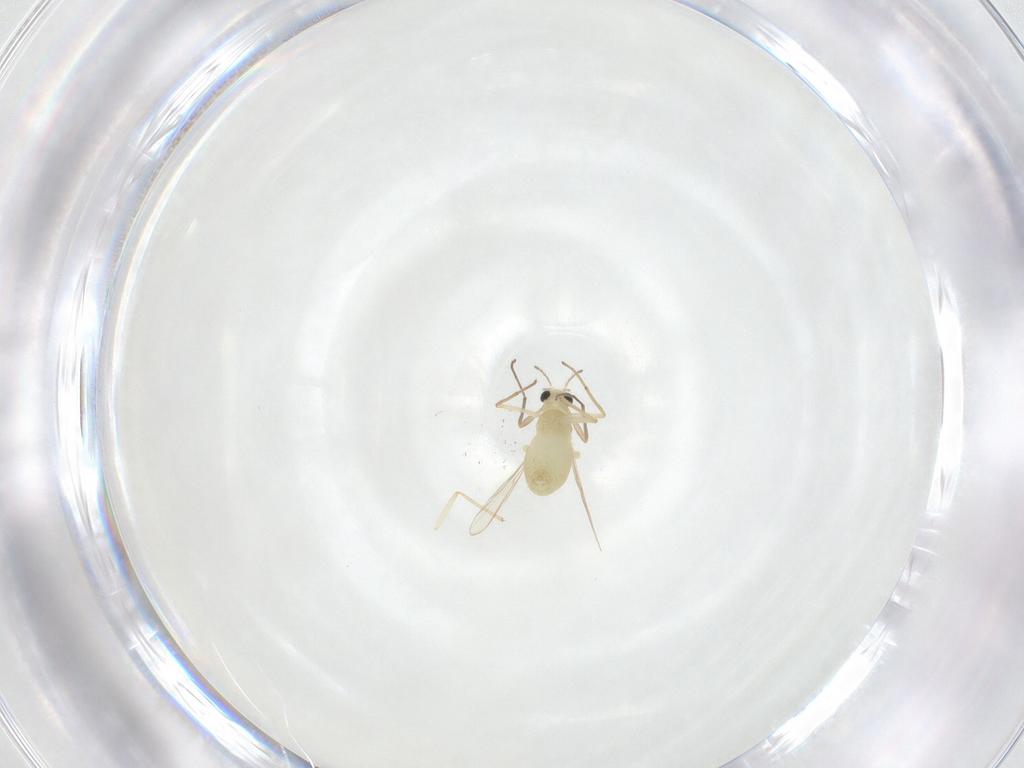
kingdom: Animalia
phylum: Arthropoda
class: Insecta
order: Diptera
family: Chironomidae
